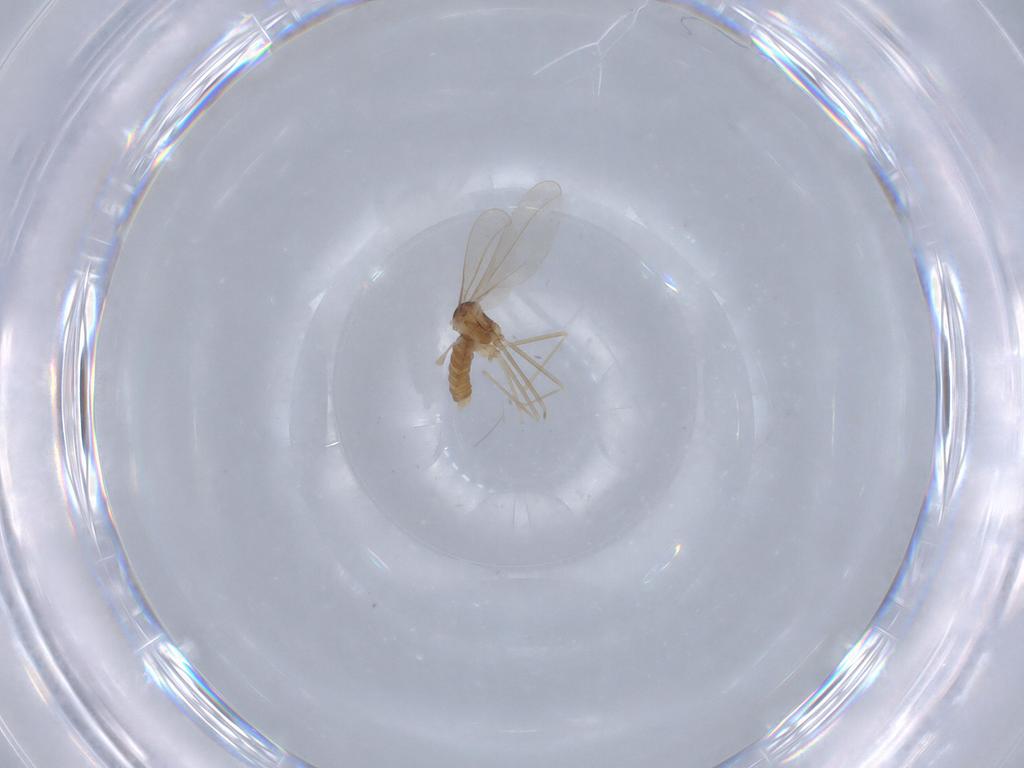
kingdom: Animalia
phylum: Arthropoda
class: Insecta
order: Diptera
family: Cecidomyiidae
